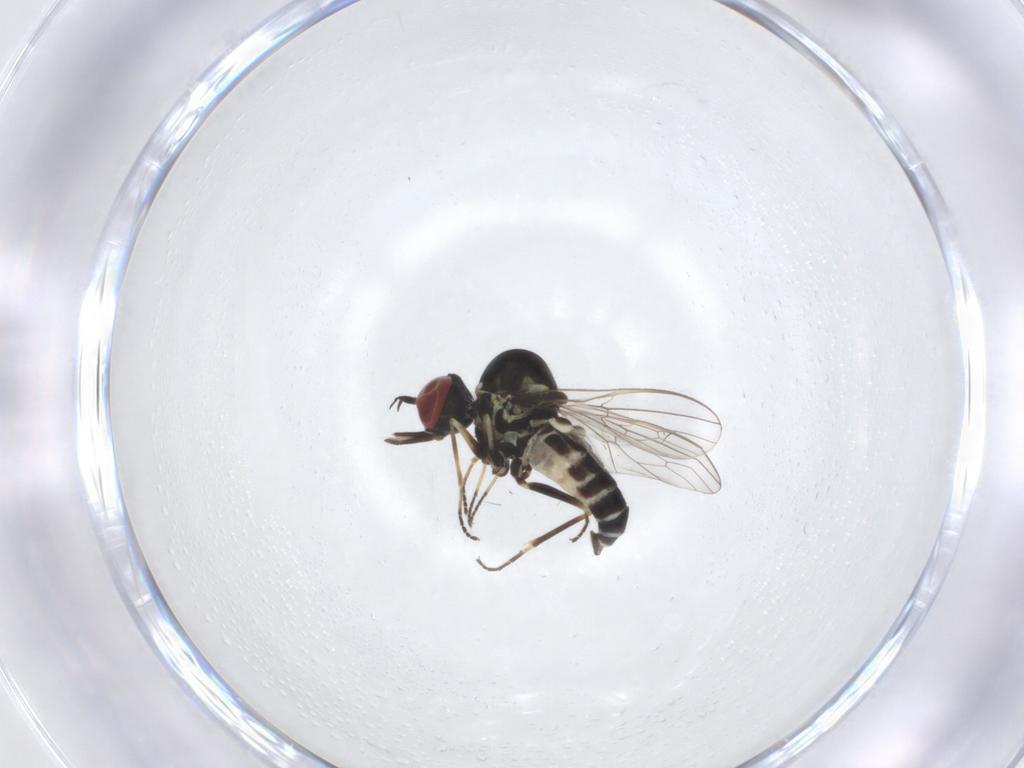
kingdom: Animalia
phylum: Arthropoda
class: Insecta
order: Diptera
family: Bombyliidae
